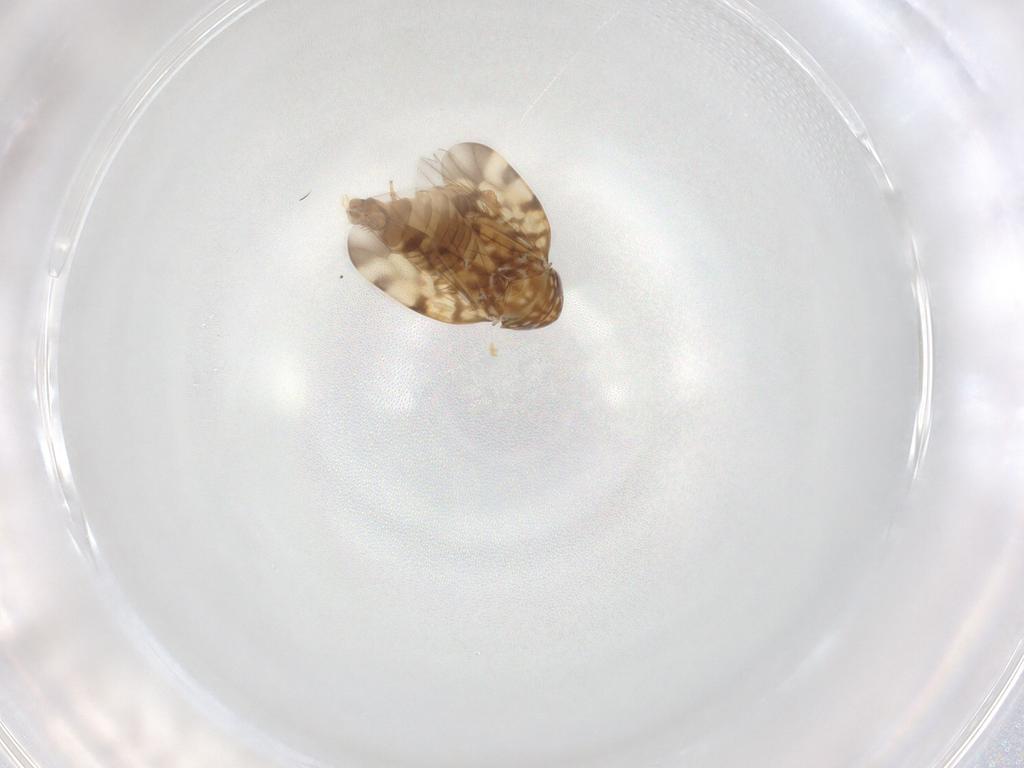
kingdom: Animalia
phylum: Arthropoda
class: Insecta
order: Hemiptera
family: Cicadellidae
